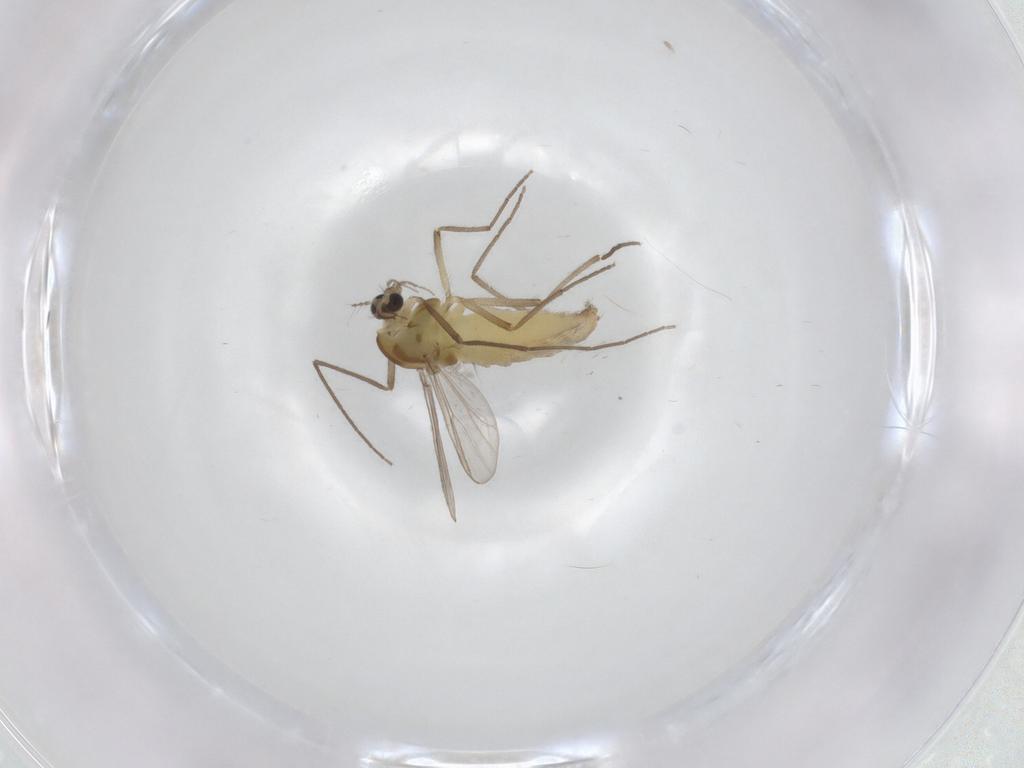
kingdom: Animalia
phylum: Arthropoda
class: Insecta
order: Diptera
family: Chironomidae
